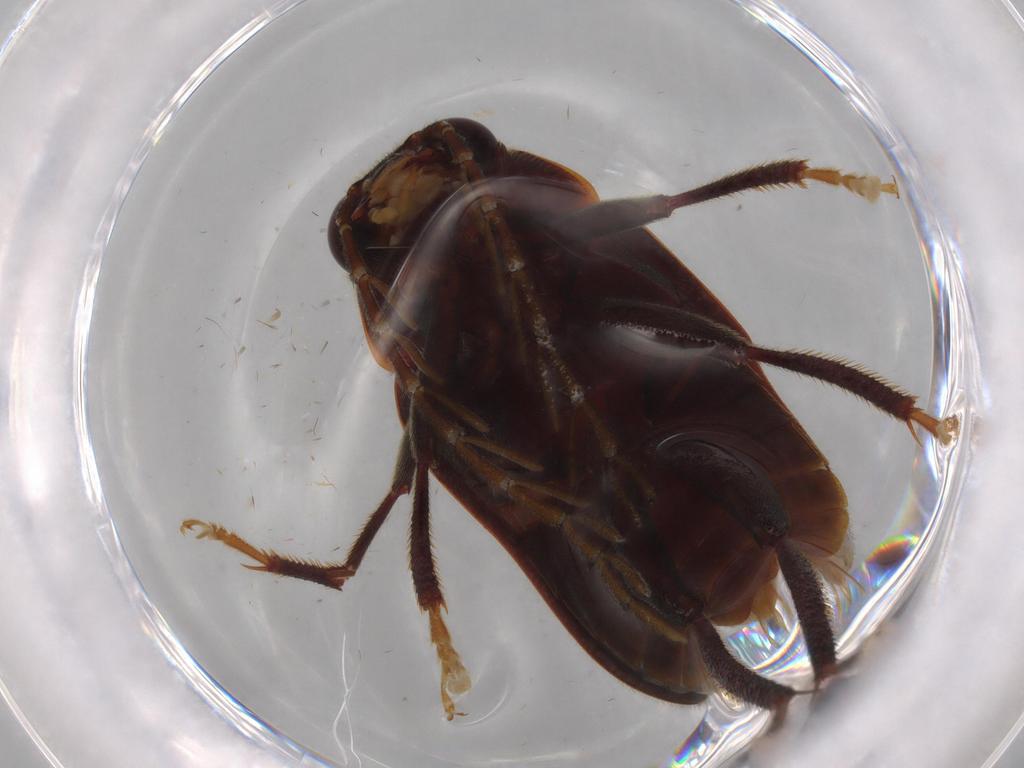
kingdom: Animalia
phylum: Arthropoda
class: Insecta
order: Coleoptera
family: Ptilodactylidae
